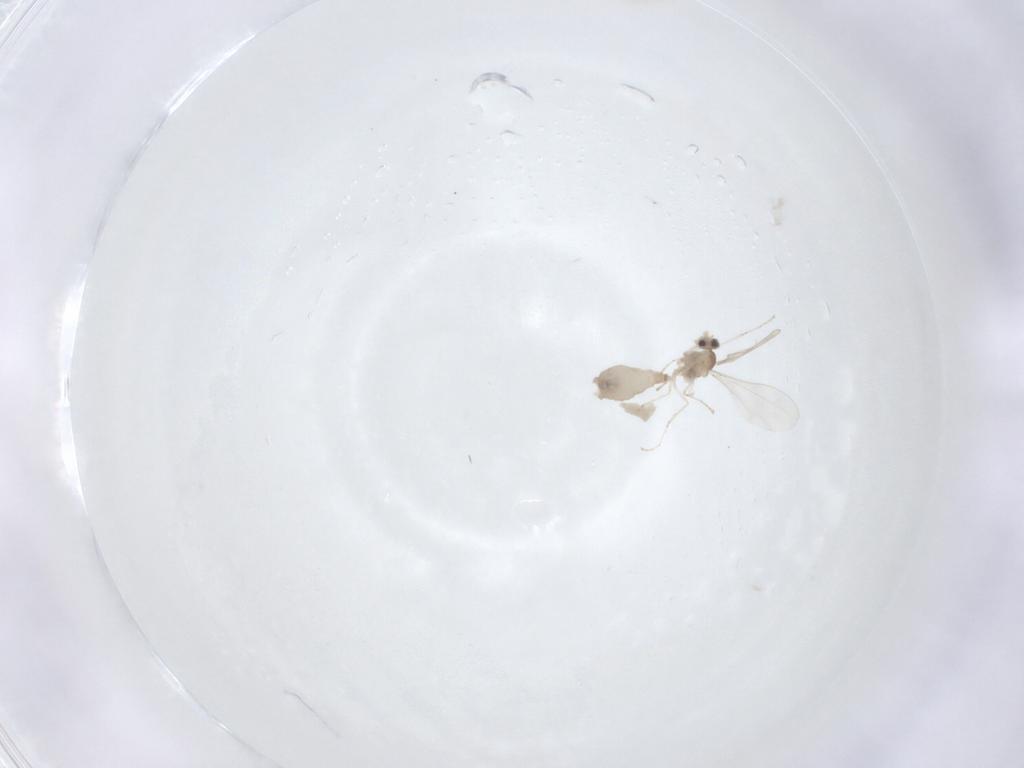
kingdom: Animalia
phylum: Arthropoda
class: Insecta
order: Diptera
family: Cecidomyiidae
